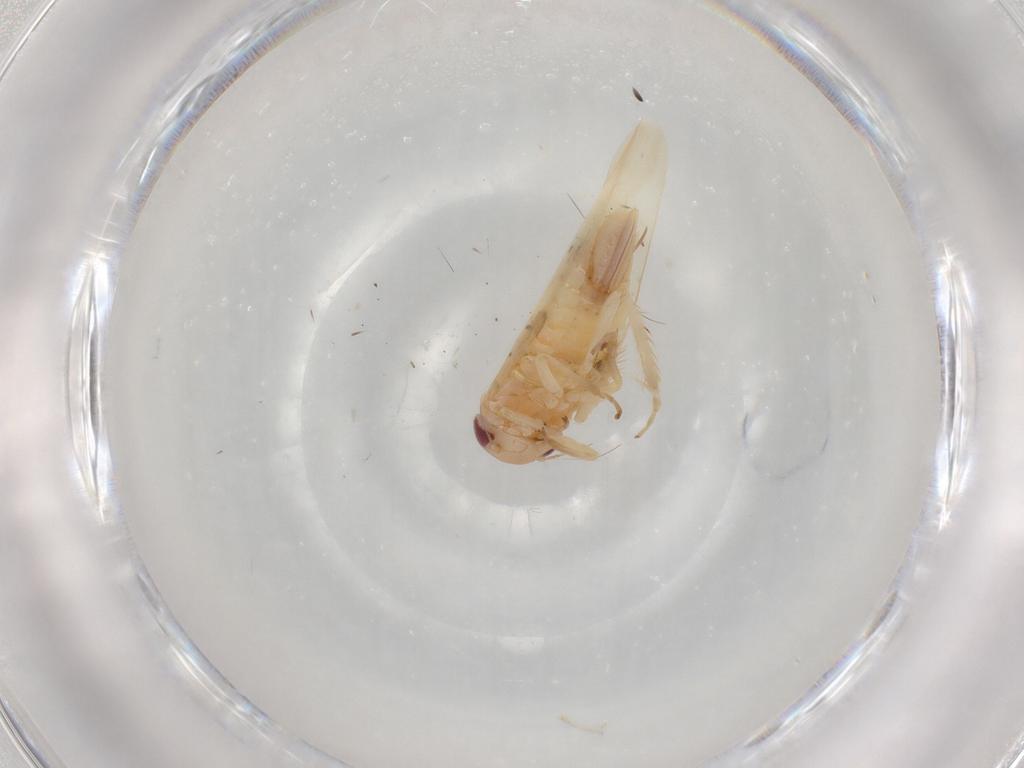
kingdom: Animalia
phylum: Arthropoda
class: Insecta
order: Hemiptera
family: Cicadellidae
